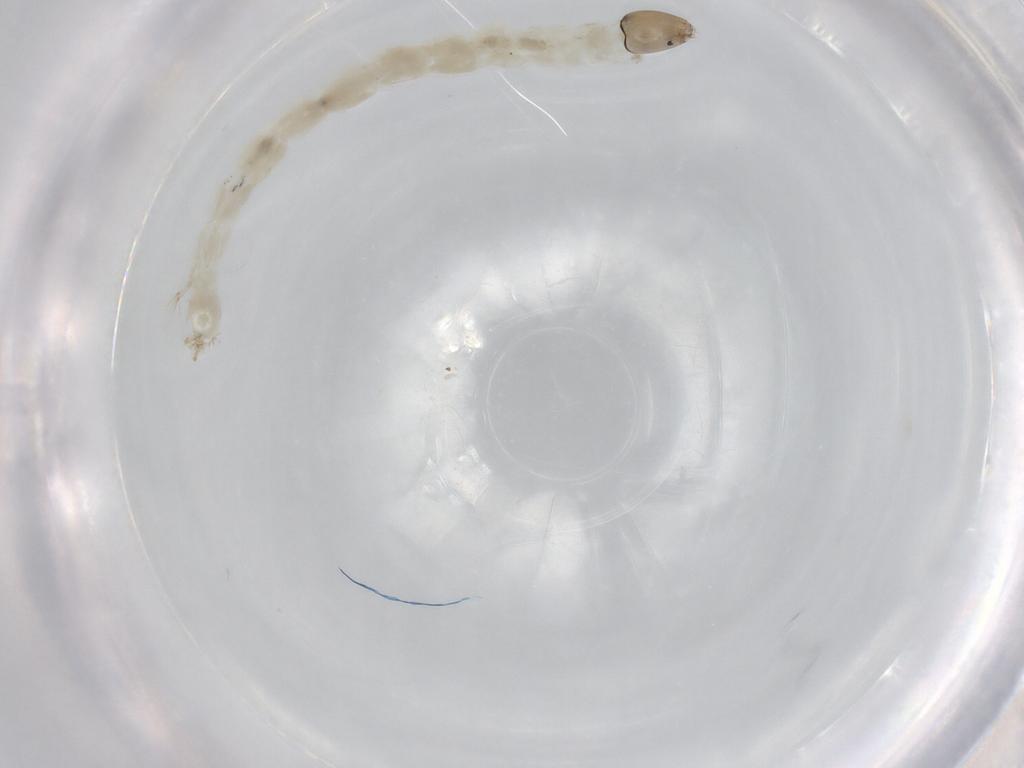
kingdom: Animalia
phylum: Arthropoda
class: Insecta
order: Diptera
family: Chironomidae
